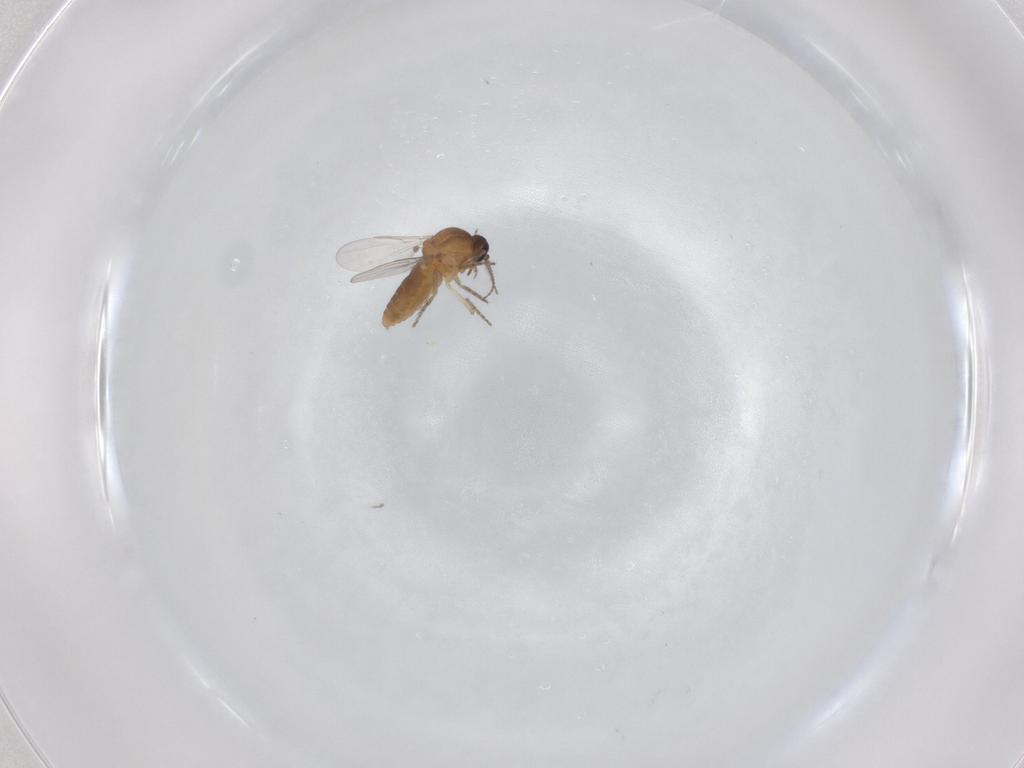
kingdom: Animalia
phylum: Arthropoda
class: Insecta
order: Diptera
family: Ceratopogonidae
